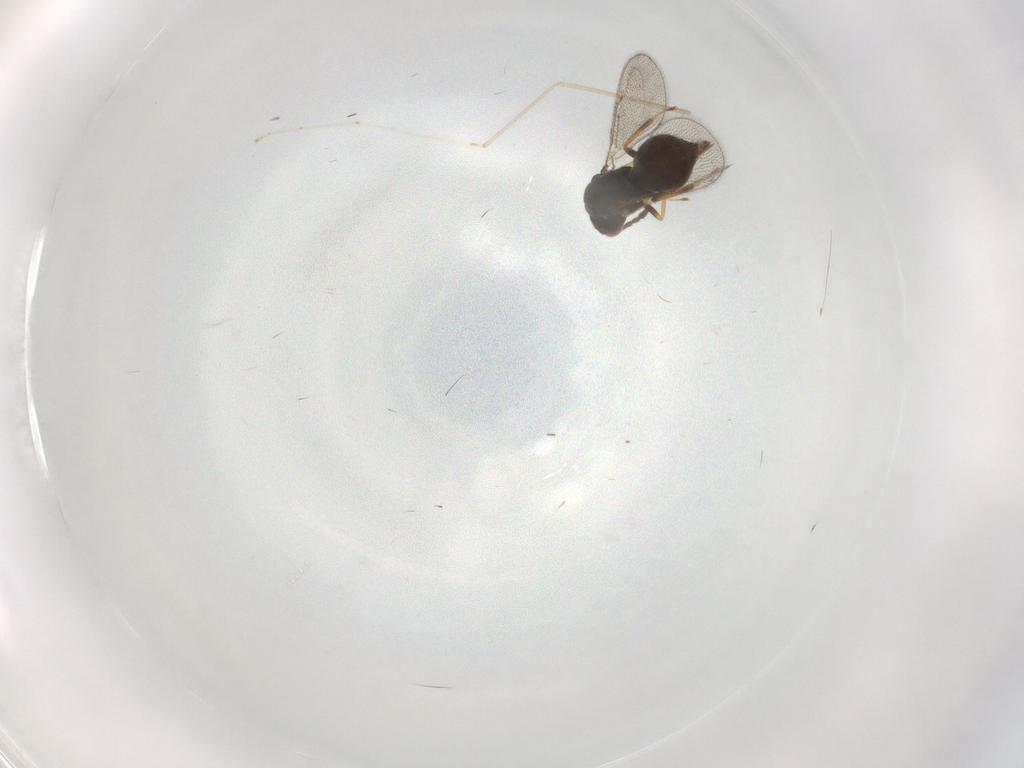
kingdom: Animalia
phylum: Arthropoda
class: Insecta
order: Hymenoptera
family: Eulophidae
